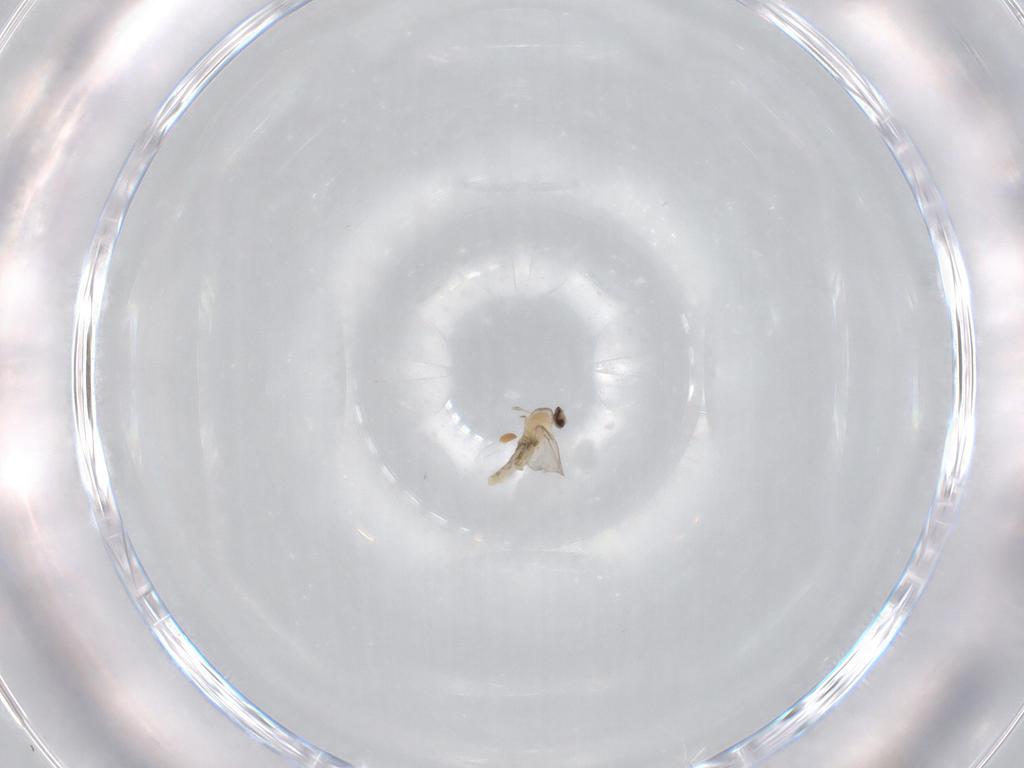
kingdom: Animalia
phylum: Arthropoda
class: Insecta
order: Diptera
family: Cecidomyiidae
